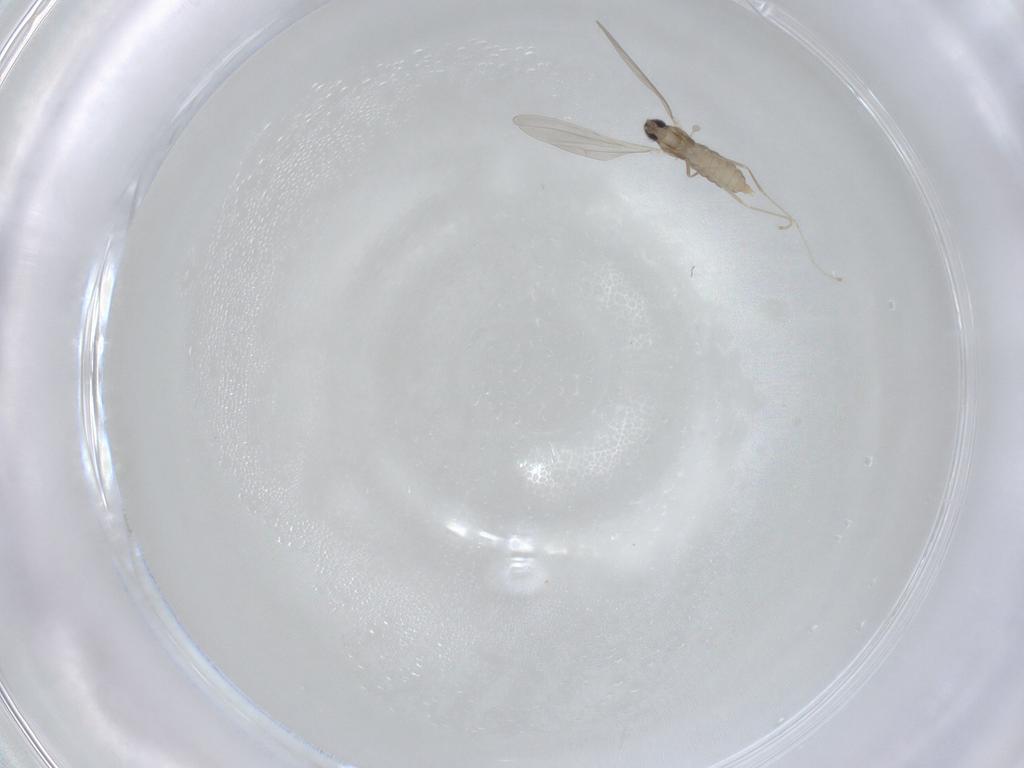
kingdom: Animalia
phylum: Arthropoda
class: Insecta
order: Diptera
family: Cecidomyiidae
